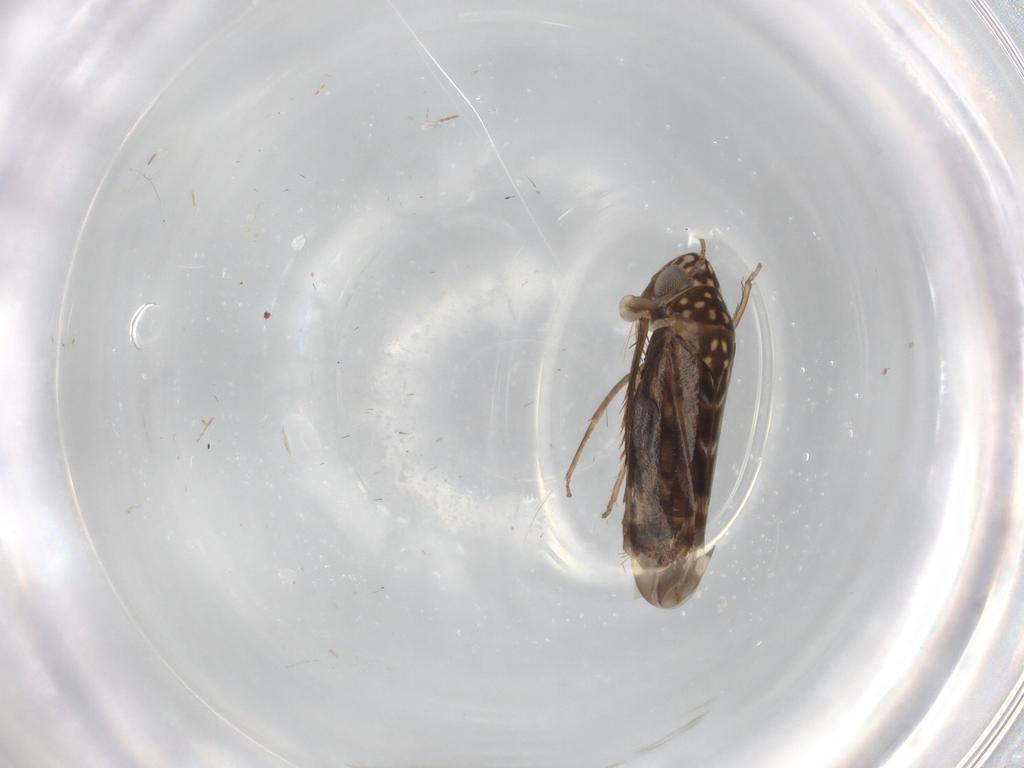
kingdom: Animalia
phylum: Arthropoda
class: Insecta
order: Hemiptera
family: Cicadellidae
